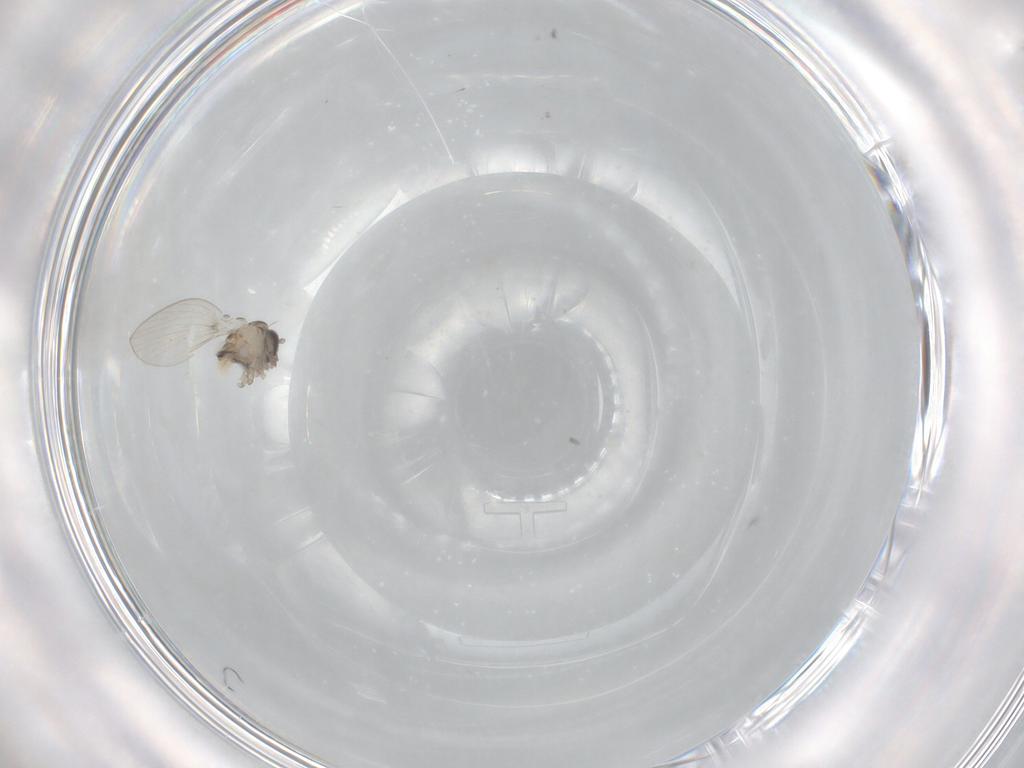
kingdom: Animalia
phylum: Arthropoda
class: Insecta
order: Diptera
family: Psychodidae
